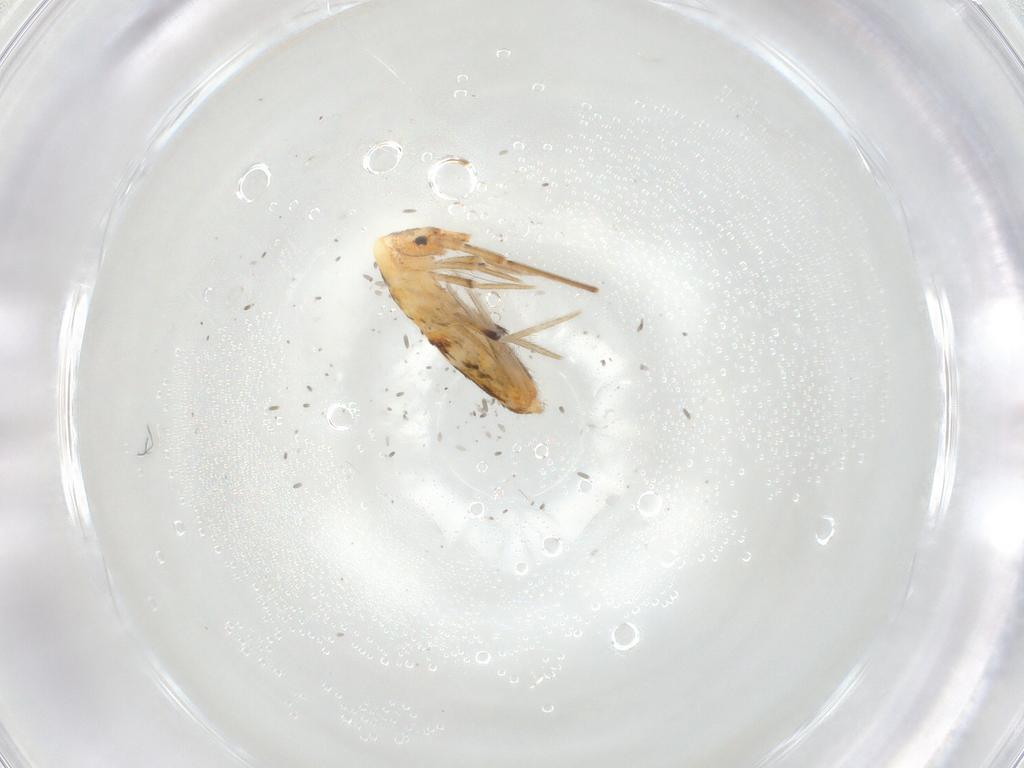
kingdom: Animalia
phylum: Arthropoda
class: Collembola
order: Entomobryomorpha
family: Entomobryidae
